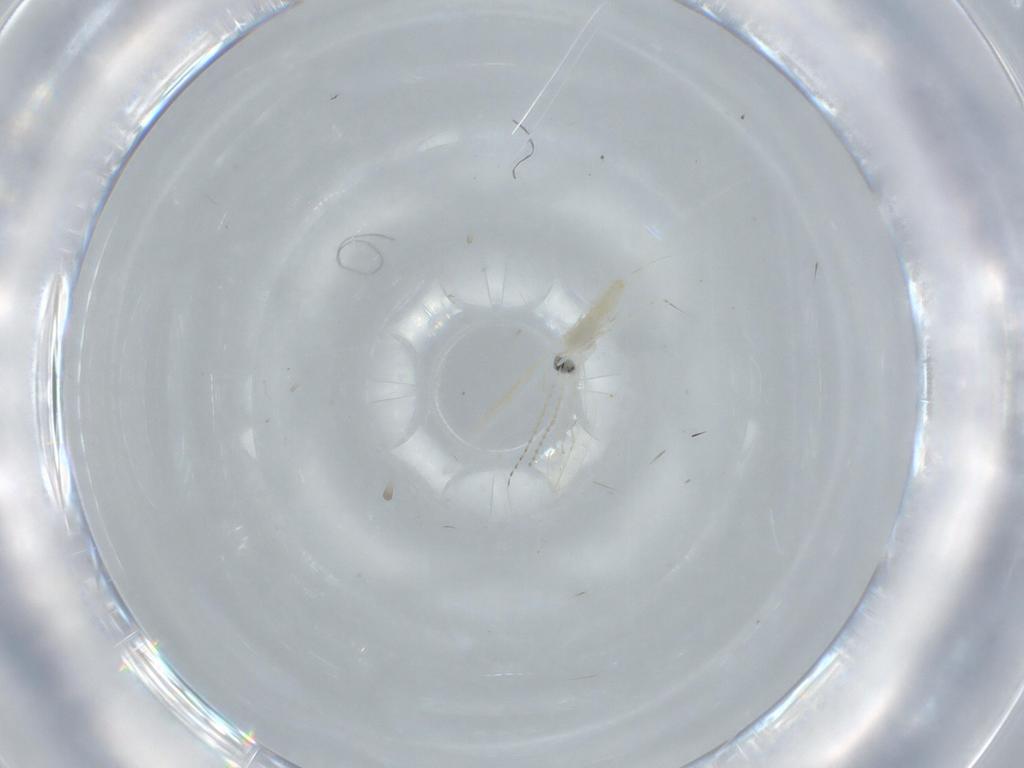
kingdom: Animalia
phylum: Arthropoda
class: Insecta
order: Diptera
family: Cecidomyiidae
